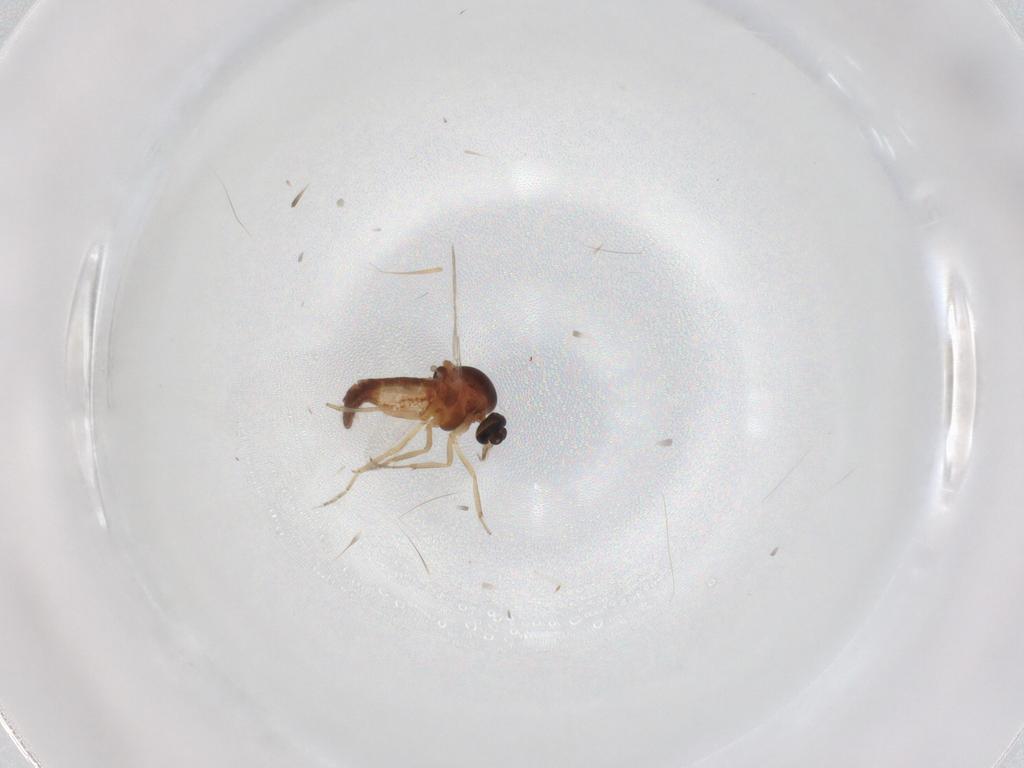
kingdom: Animalia
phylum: Arthropoda
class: Insecta
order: Diptera
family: Ceratopogonidae
